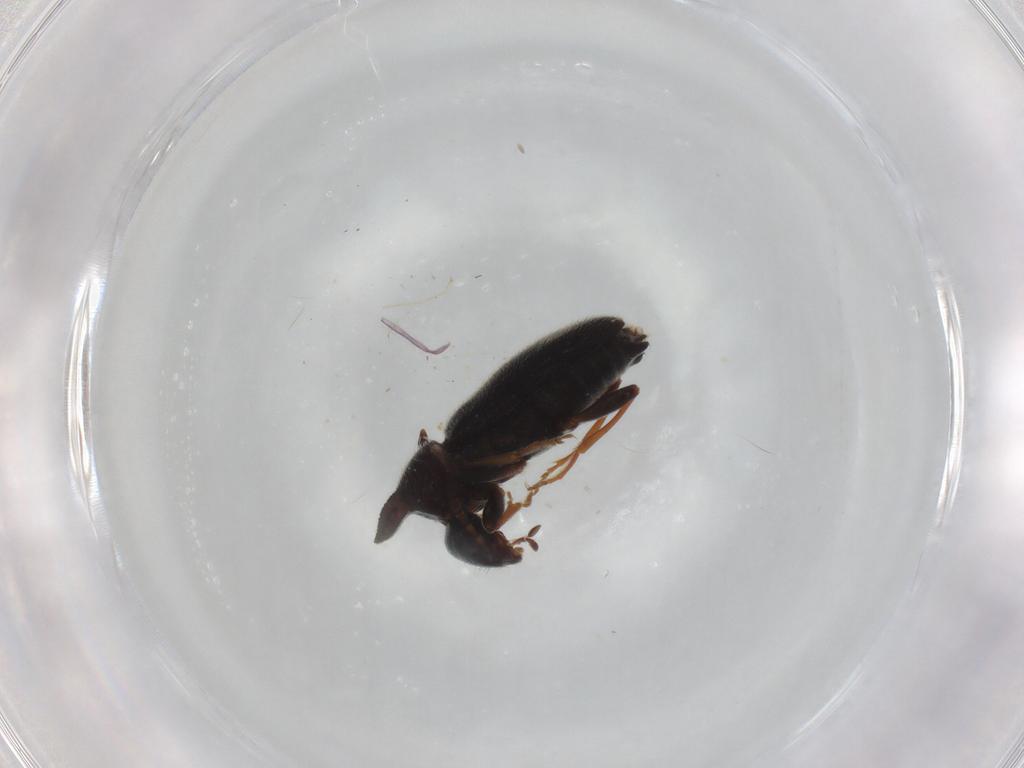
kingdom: Animalia
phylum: Arthropoda
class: Insecta
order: Coleoptera
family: Anthicidae
